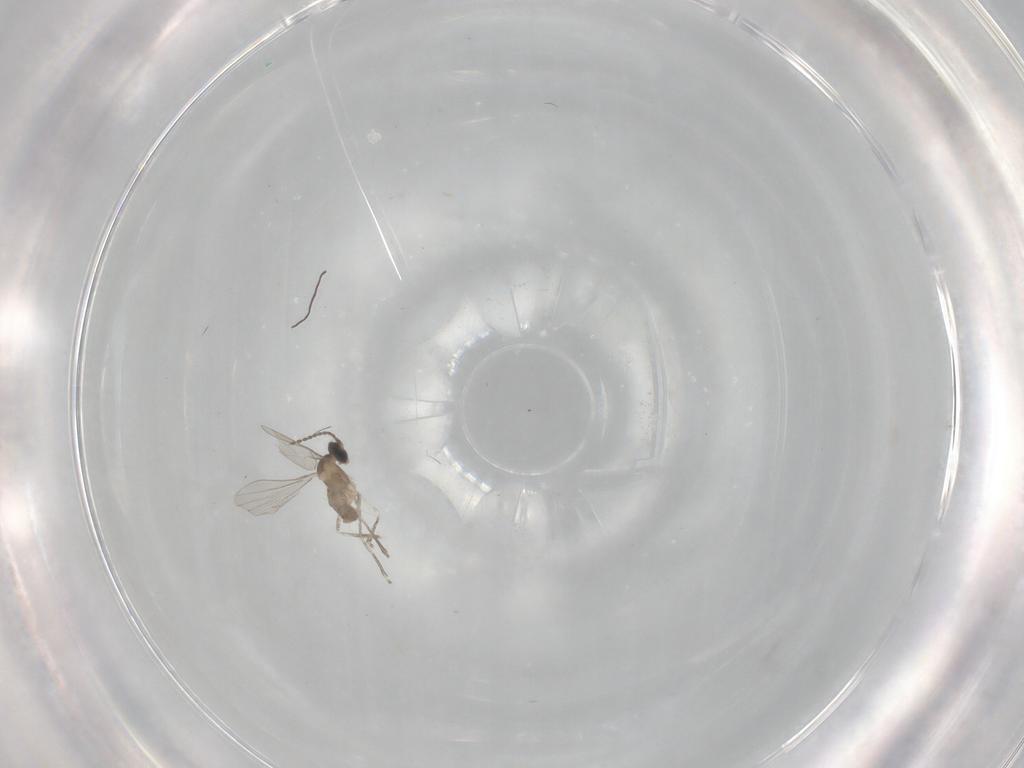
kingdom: Animalia
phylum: Arthropoda
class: Insecta
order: Diptera
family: Cecidomyiidae
